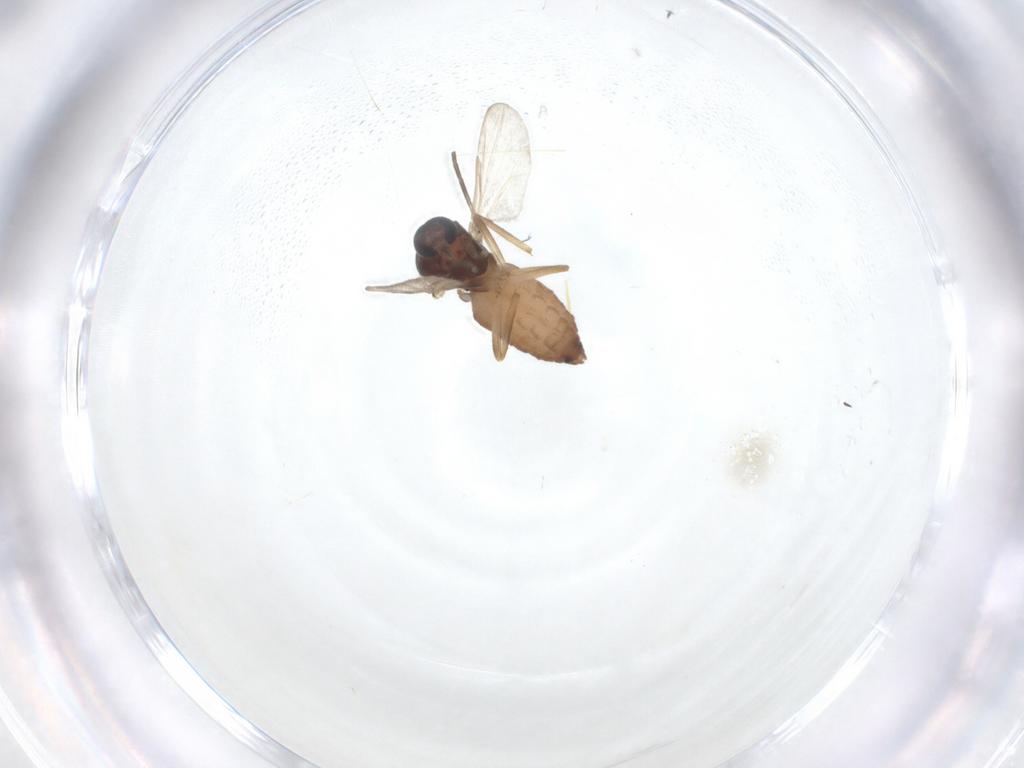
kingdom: Animalia
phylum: Arthropoda
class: Insecta
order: Diptera
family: Ceratopogonidae
